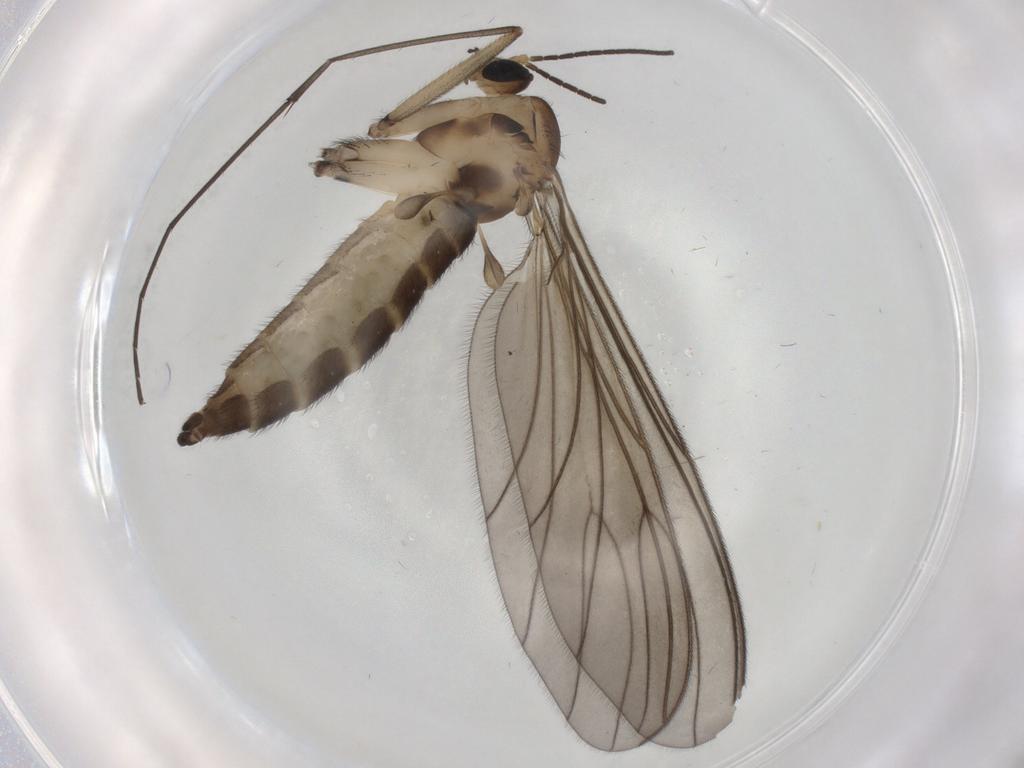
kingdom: Animalia
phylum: Arthropoda
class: Insecta
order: Diptera
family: Sciaridae
